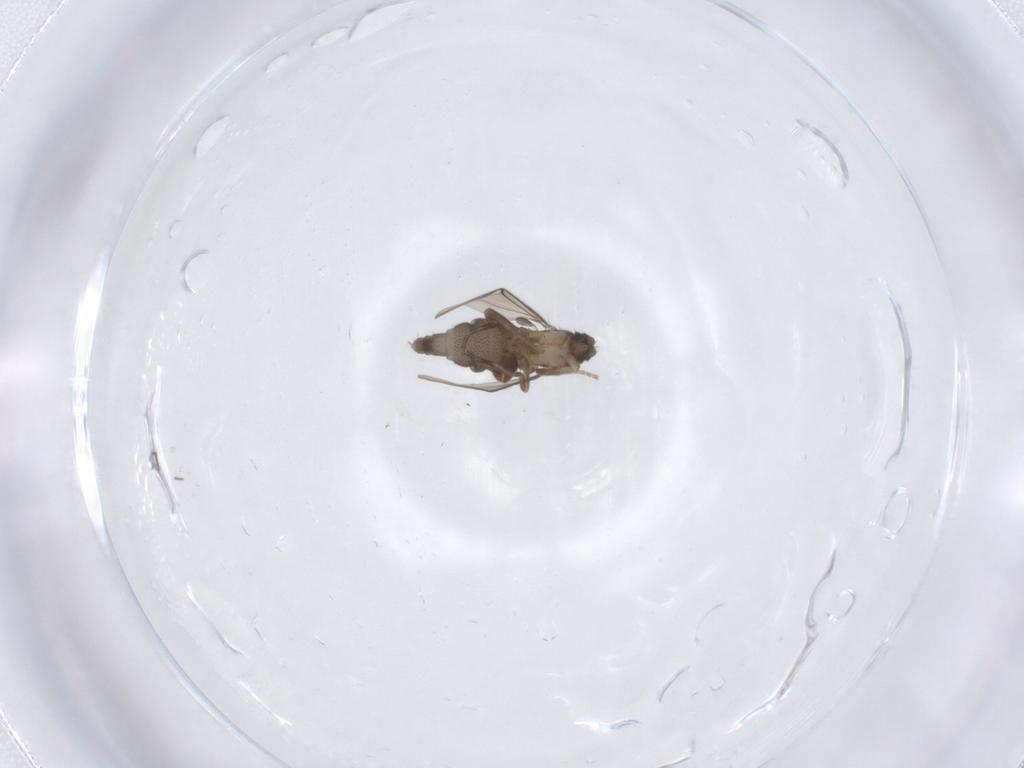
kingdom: Animalia
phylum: Arthropoda
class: Insecta
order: Diptera
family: Phoridae
